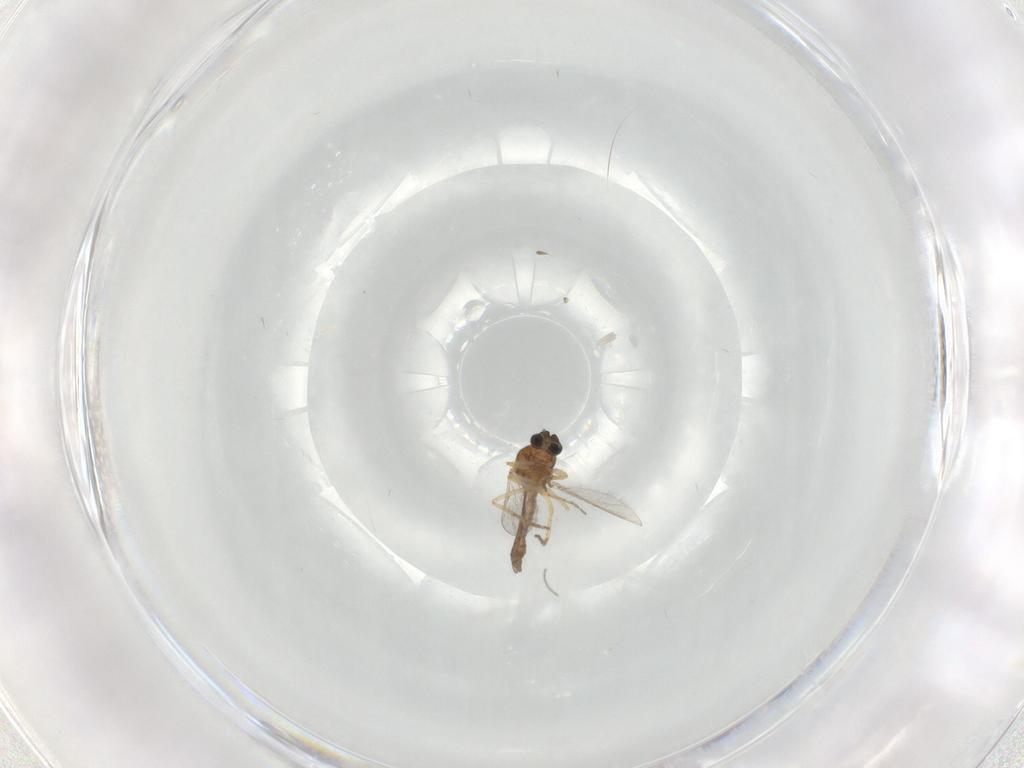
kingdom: Animalia
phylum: Arthropoda
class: Insecta
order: Diptera
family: Ceratopogonidae
